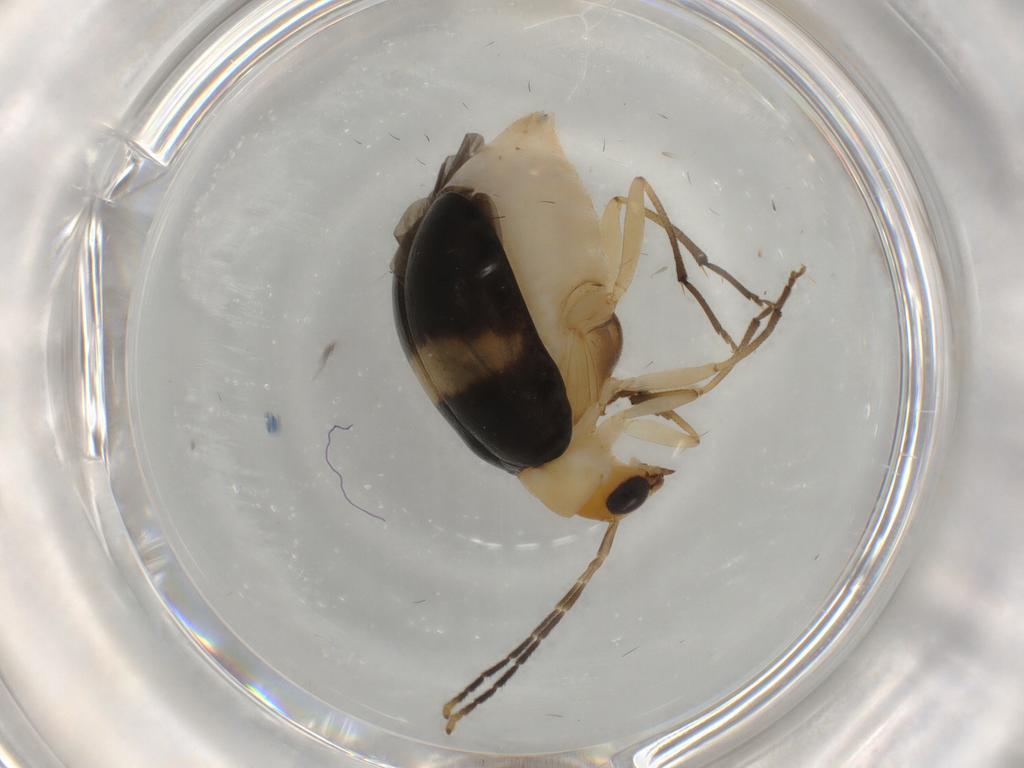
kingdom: Animalia
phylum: Arthropoda
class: Insecta
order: Coleoptera
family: Chrysomelidae
